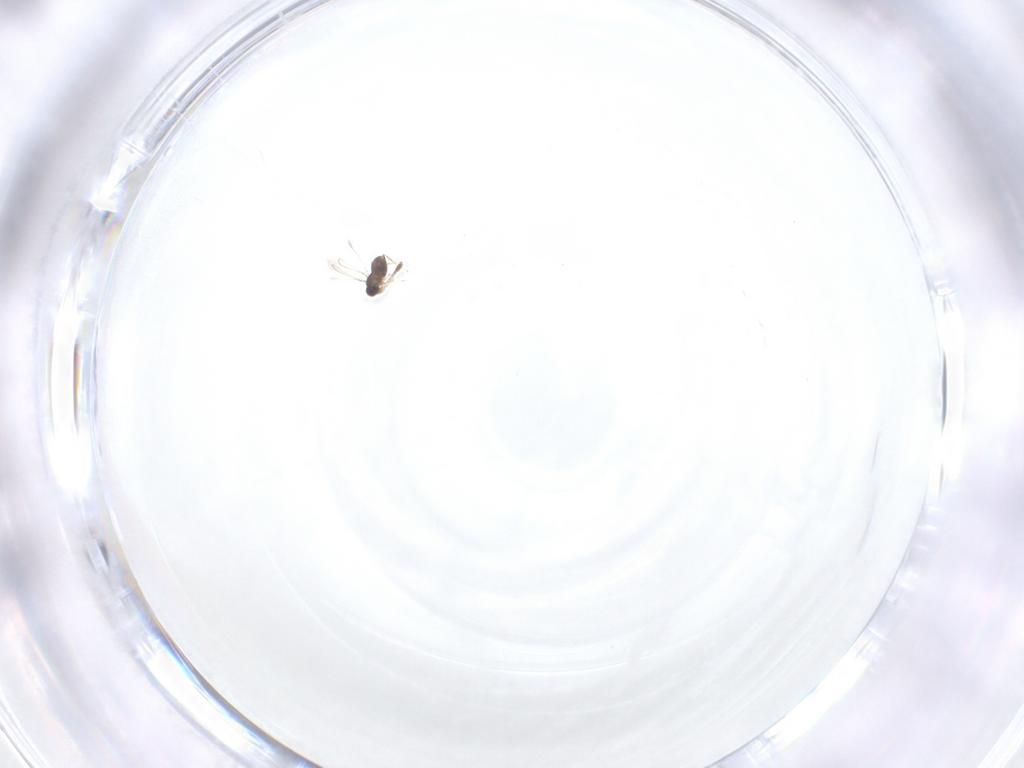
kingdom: Animalia
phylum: Arthropoda
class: Insecta
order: Hymenoptera
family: Mymaridae
